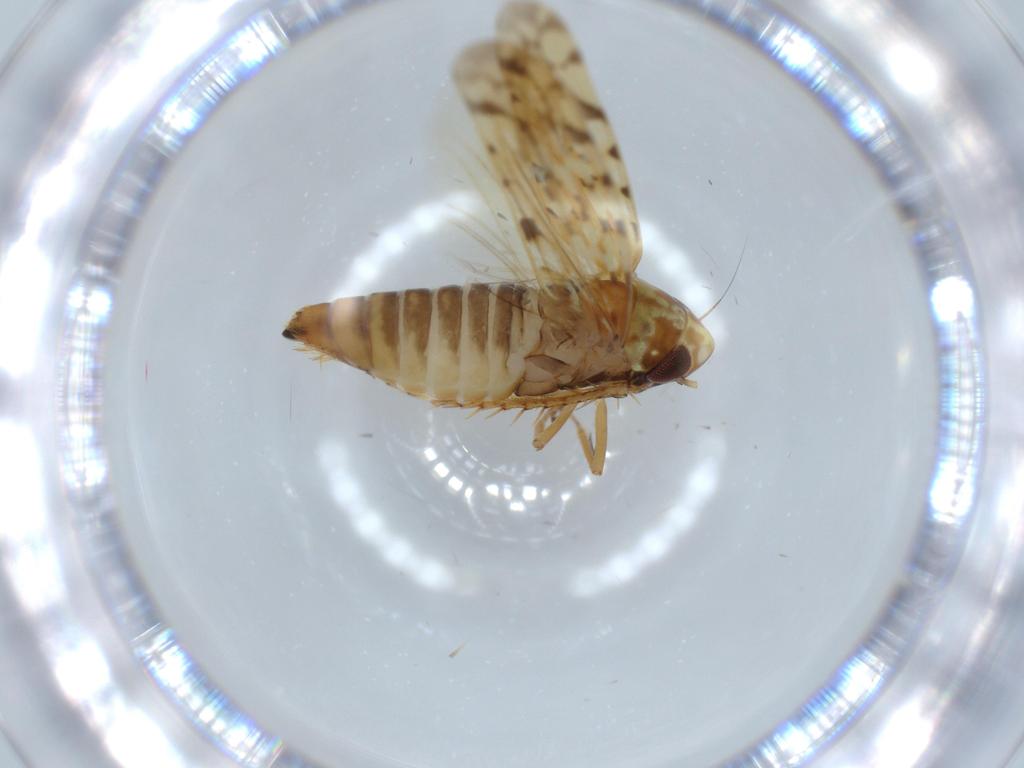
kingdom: Animalia
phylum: Arthropoda
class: Insecta
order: Hemiptera
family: Cicadellidae
